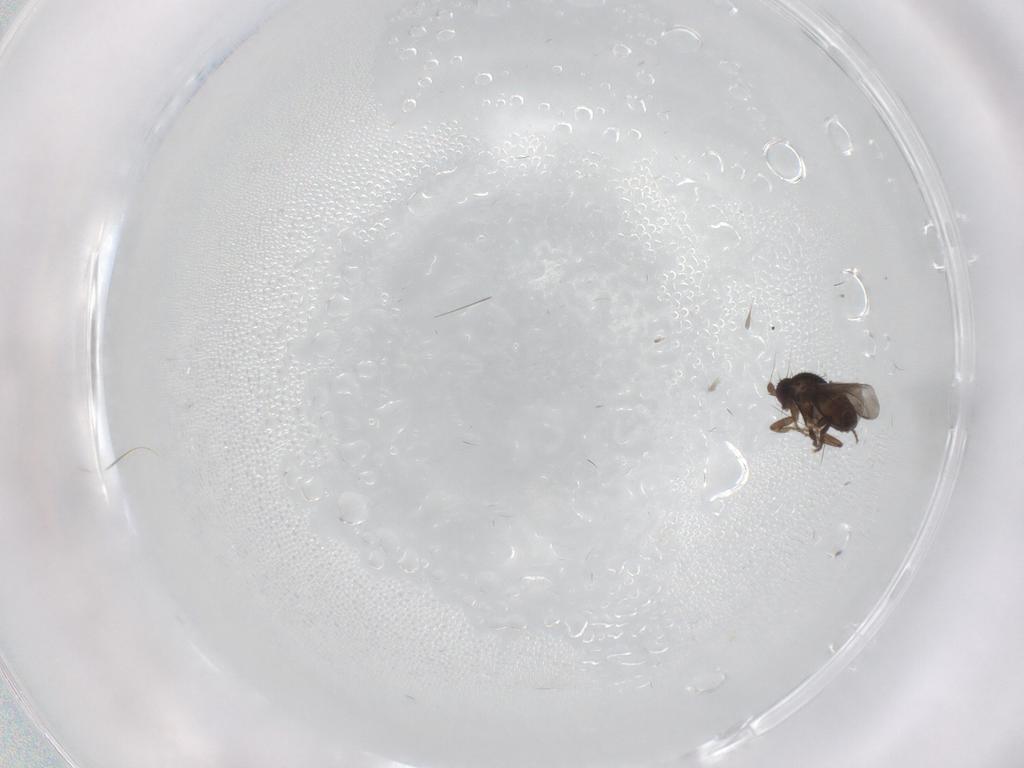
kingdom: Animalia
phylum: Arthropoda
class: Insecta
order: Diptera
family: Sphaeroceridae
